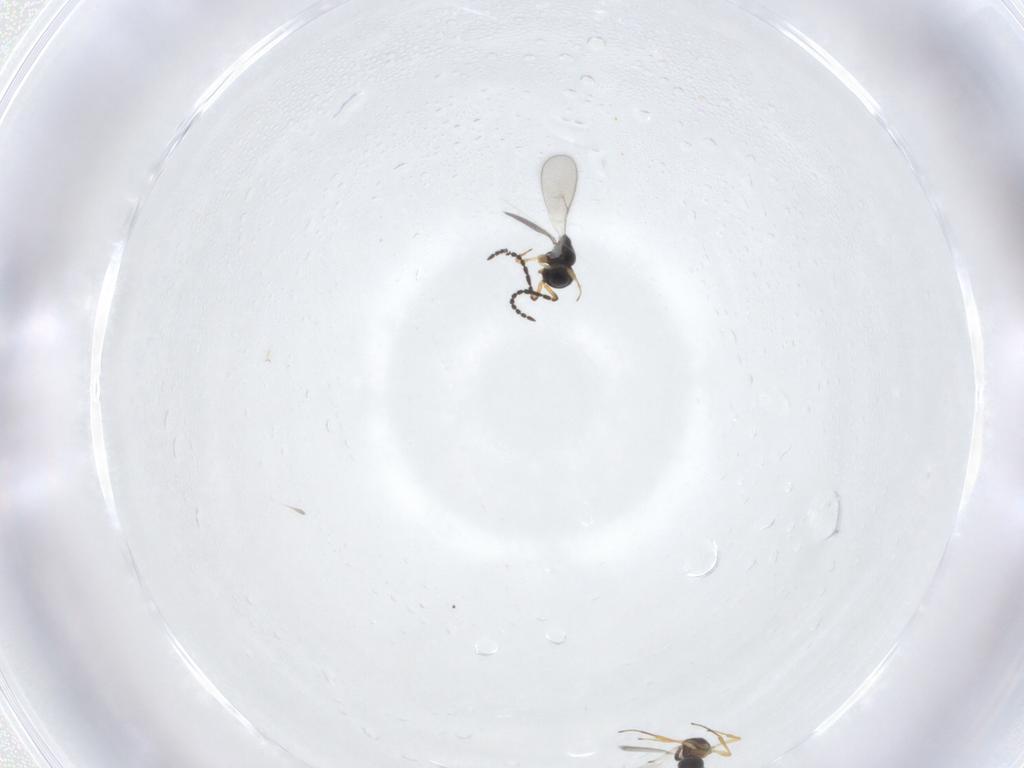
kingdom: Animalia
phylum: Arthropoda
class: Insecta
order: Hymenoptera
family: Scelionidae
